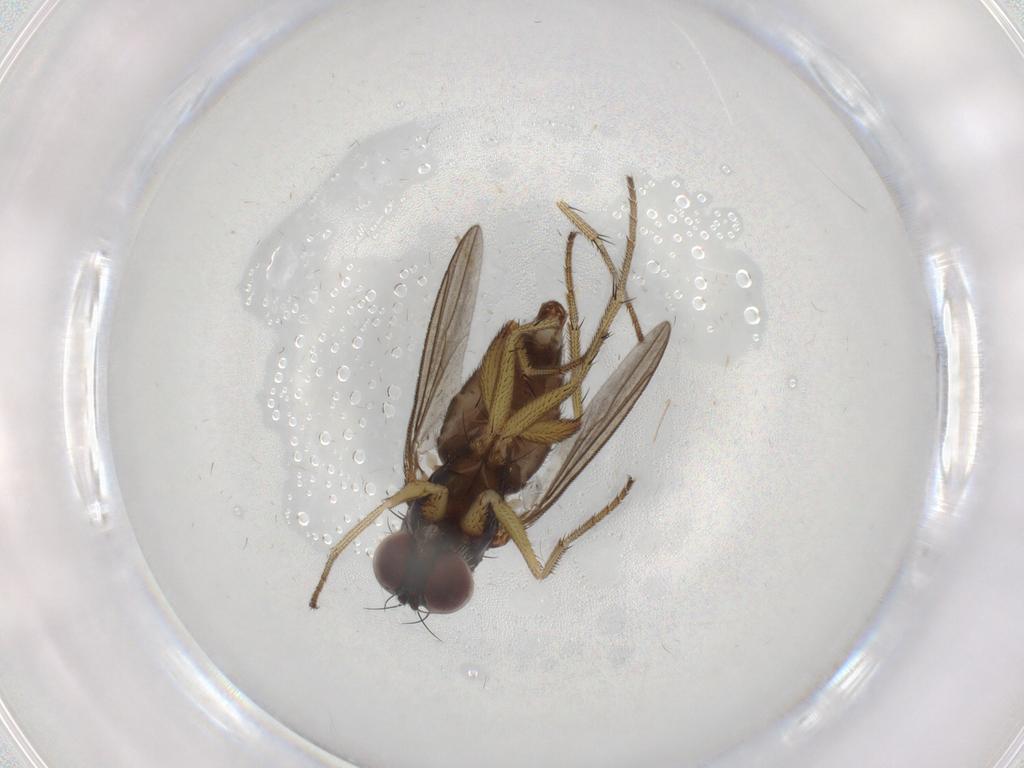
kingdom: Animalia
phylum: Arthropoda
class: Insecta
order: Diptera
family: Dolichopodidae
